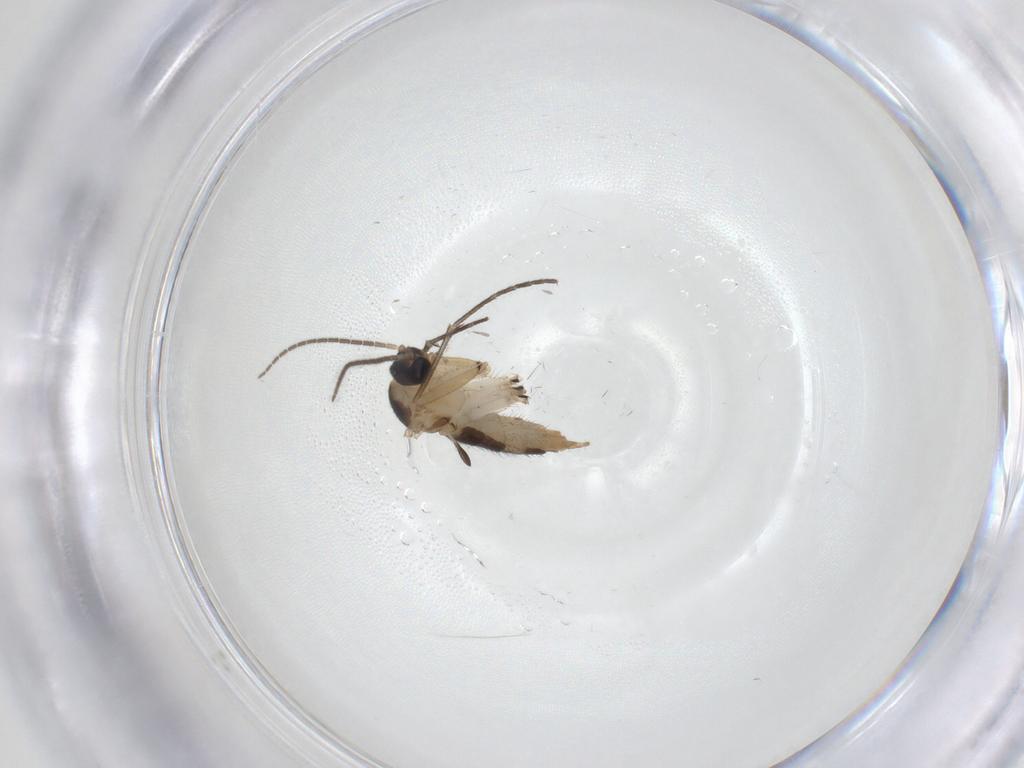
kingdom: Animalia
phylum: Arthropoda
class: Insecta
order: Diptera
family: Sciaridae
